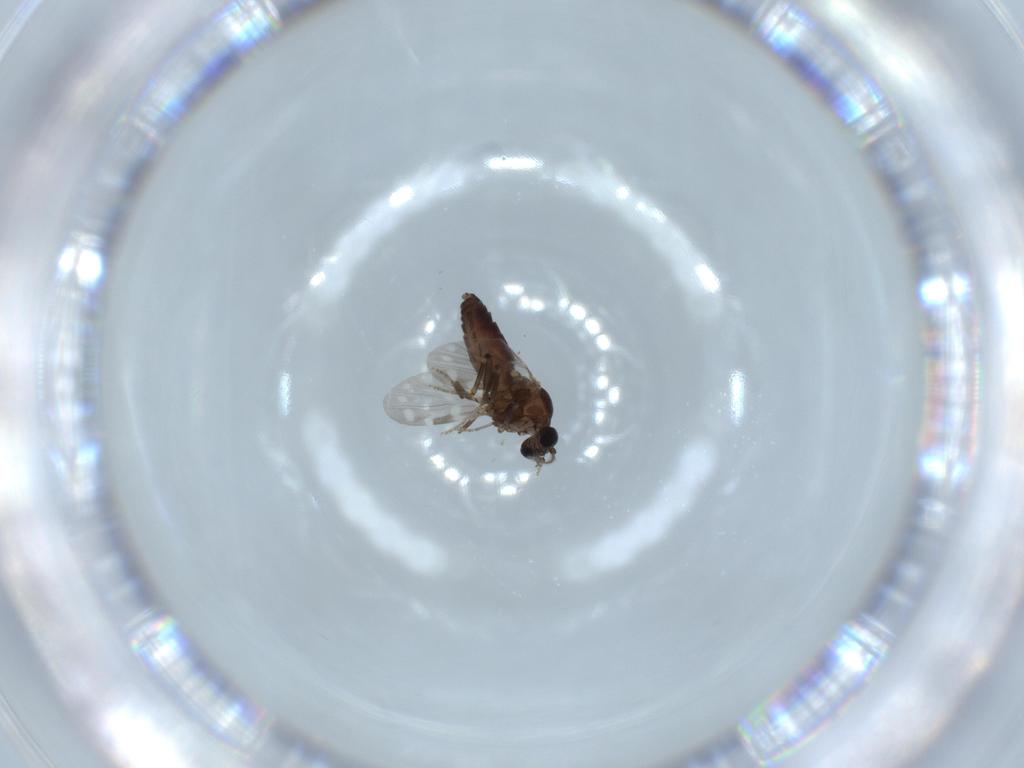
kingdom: Animalia
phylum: Arthropoda
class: Insecta
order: Diptera
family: Ceratopogonidae
